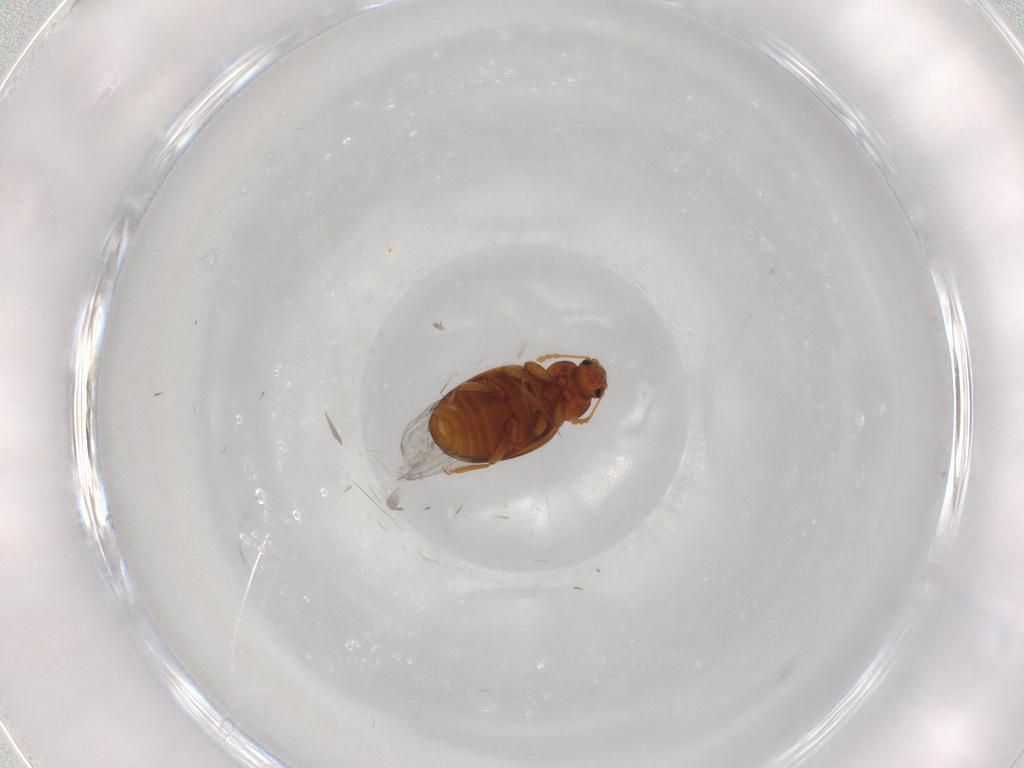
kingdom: Animalia
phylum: Arthropoda
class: Insecta
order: Coleoptera
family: Latridiidae
